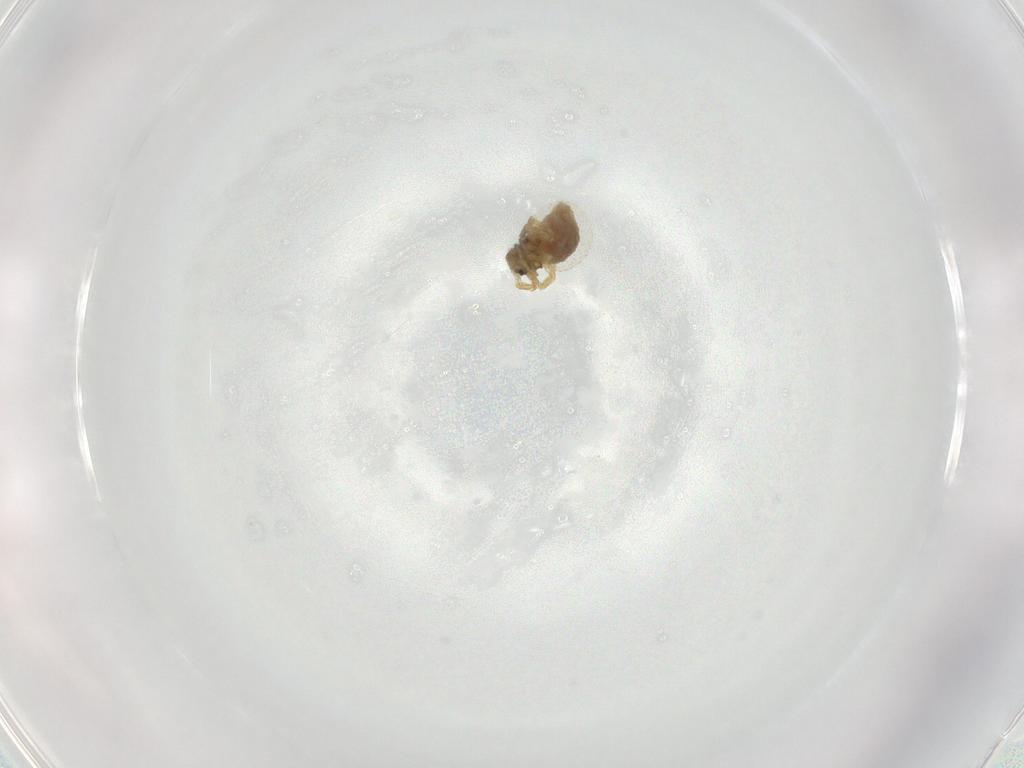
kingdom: Animalia
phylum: Arthropoda
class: Arachnida
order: Araneae
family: Linyphiidae
